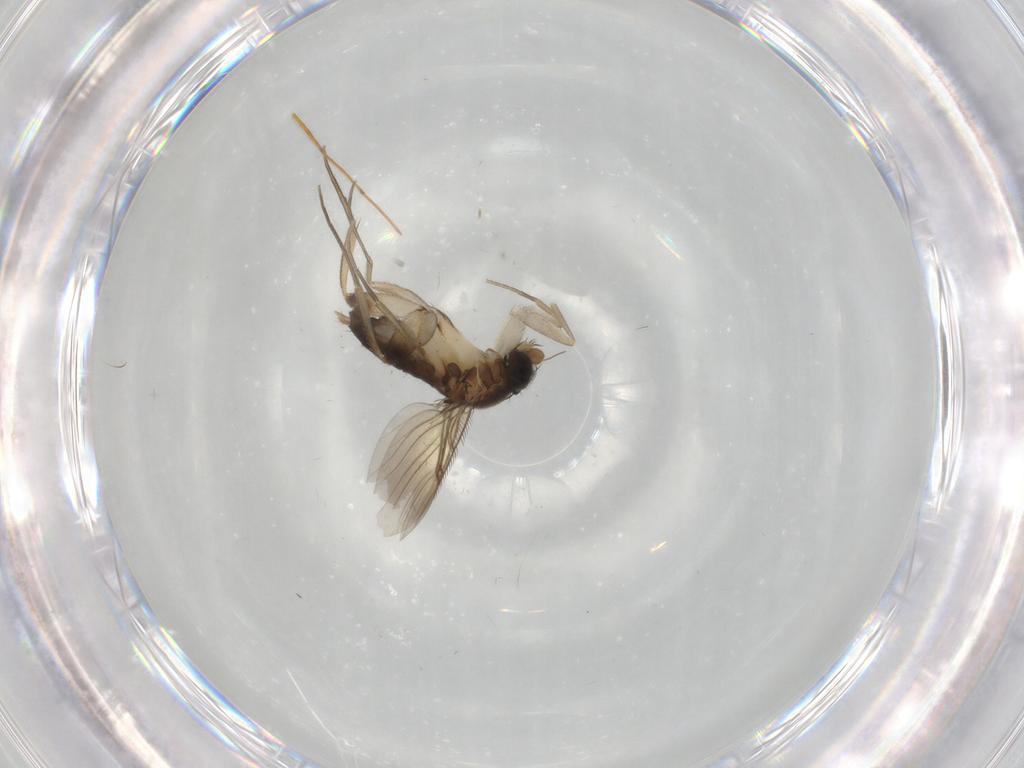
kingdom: Animalia
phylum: Arthropoda
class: Insecta
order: Diptera
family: Phoridae
